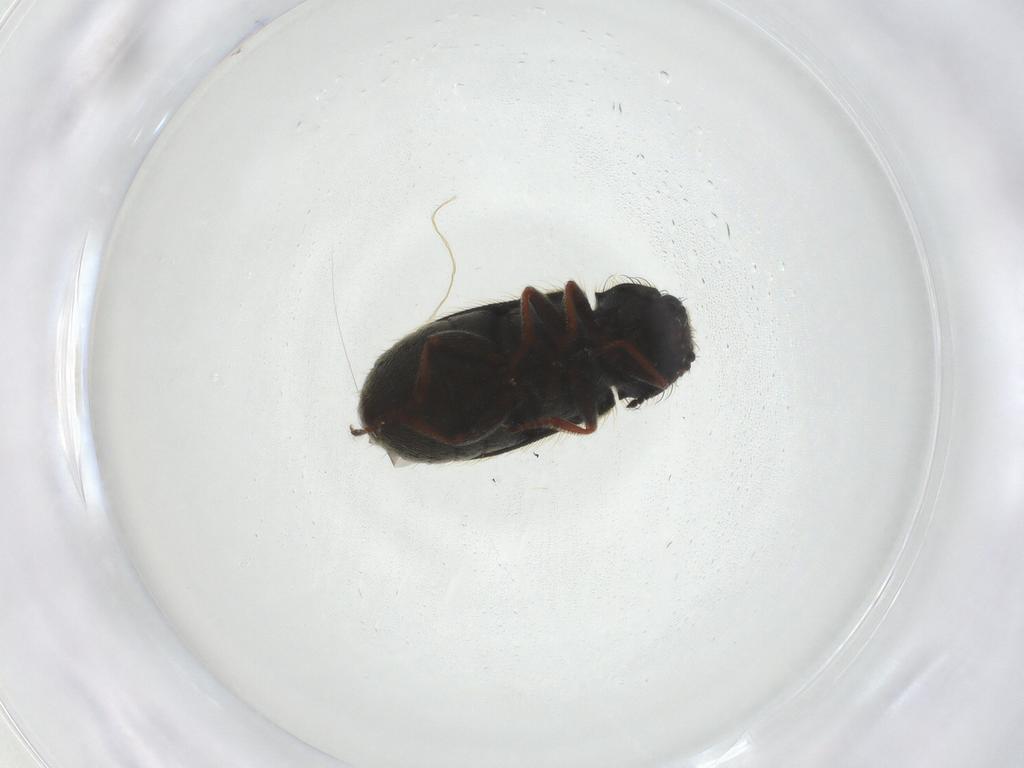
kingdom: Animalia
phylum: Arthropoda
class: Insecta
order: Coleoptera
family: Melyridae
